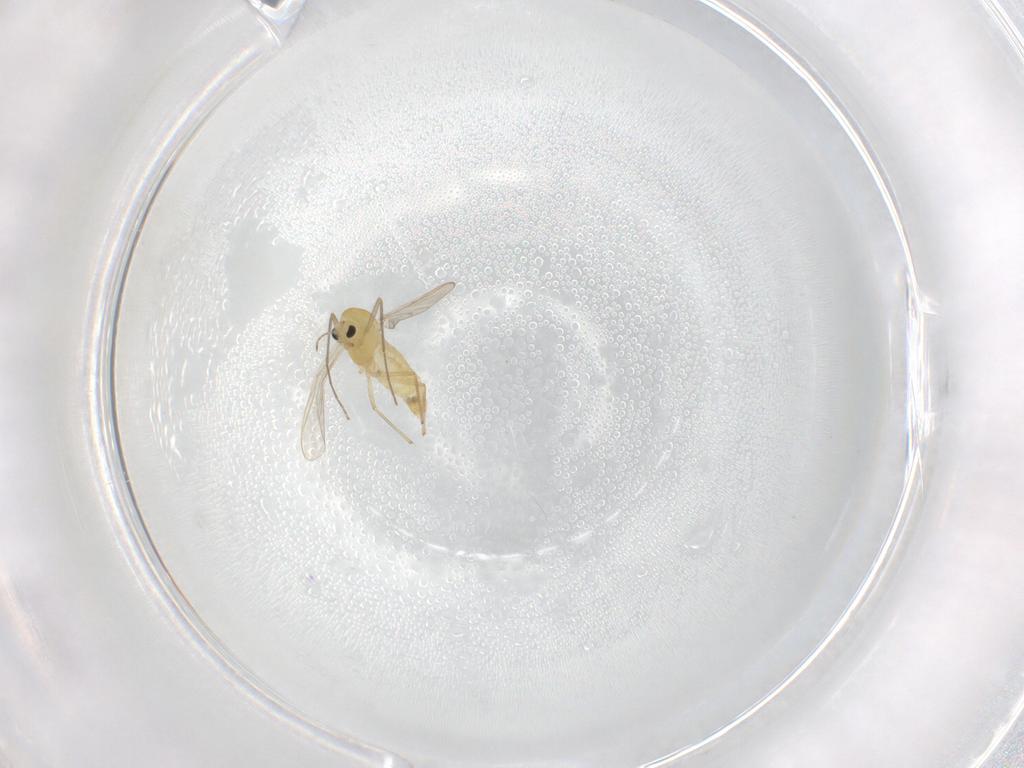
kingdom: Animalia
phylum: Arthropoda
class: Insecta
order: Diptera
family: Chironomidae
